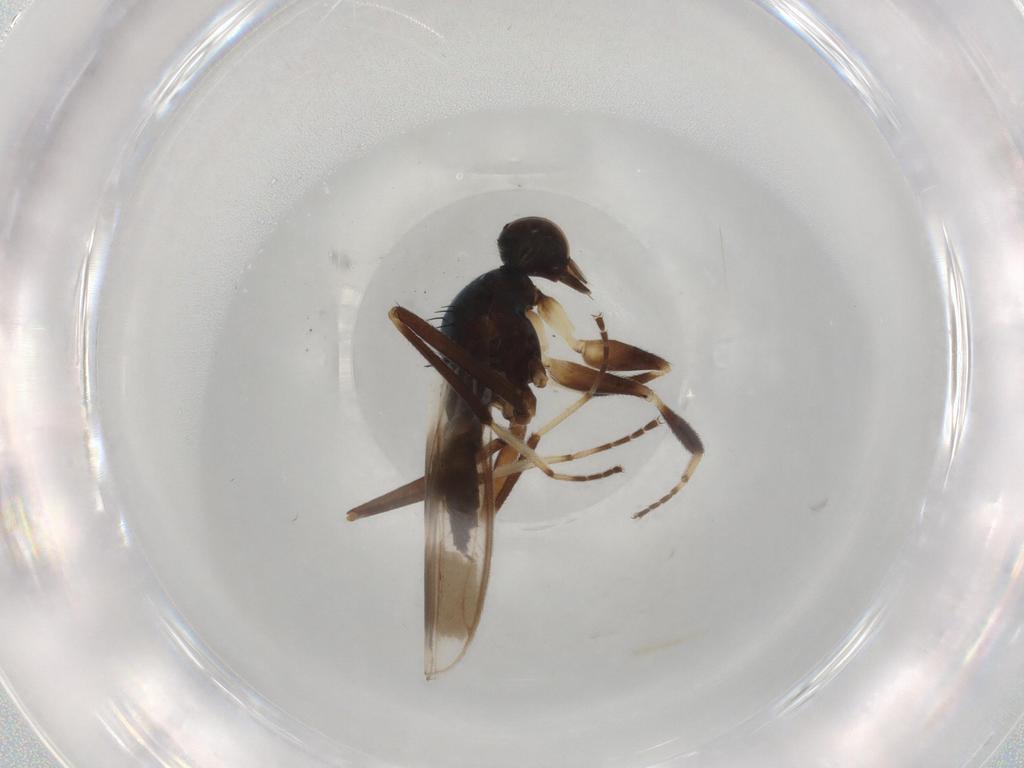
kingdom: Animalia
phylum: Arthropoda
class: Insecta
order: Diptera
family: Hybotidae
